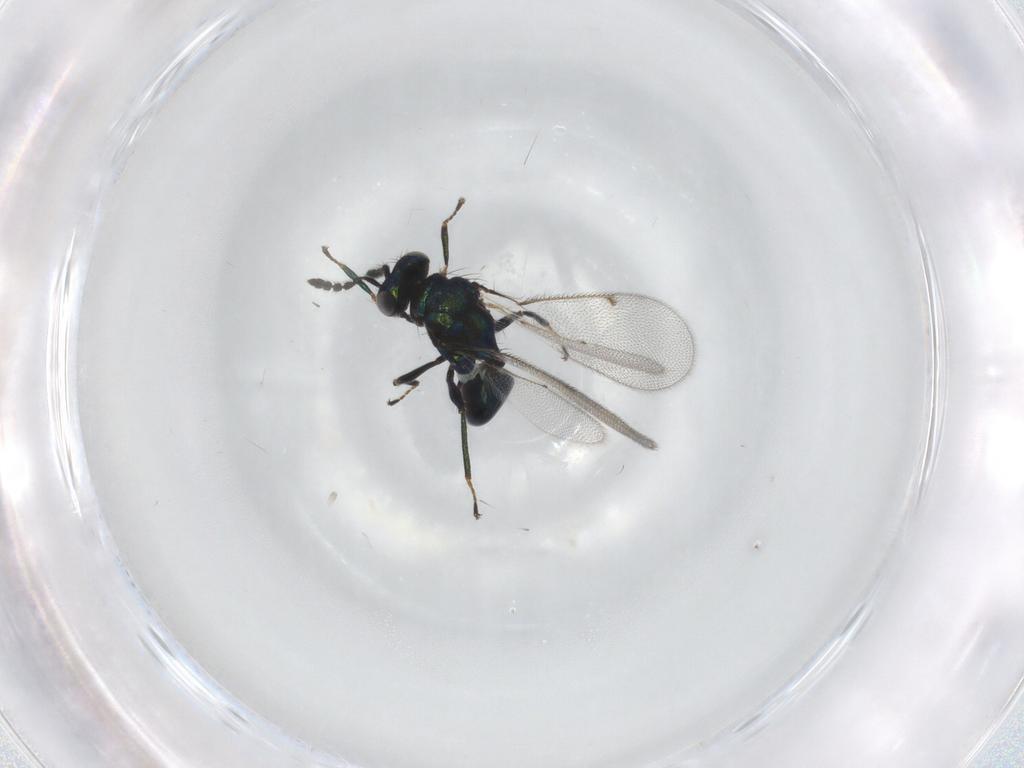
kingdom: Animalia
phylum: Arthropoda
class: Insecta
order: Hymenoptera
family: Eulophidae
